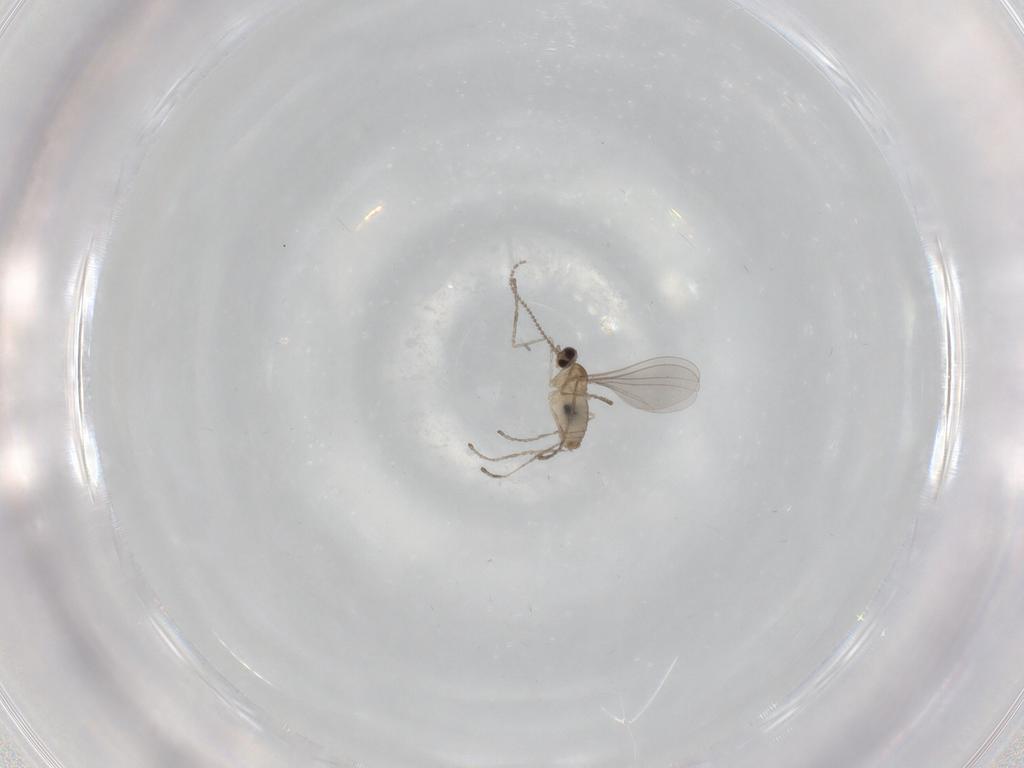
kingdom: Animalia
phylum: Arthropoda
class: Insecta
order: Diptera
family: Cecidomyiidae
